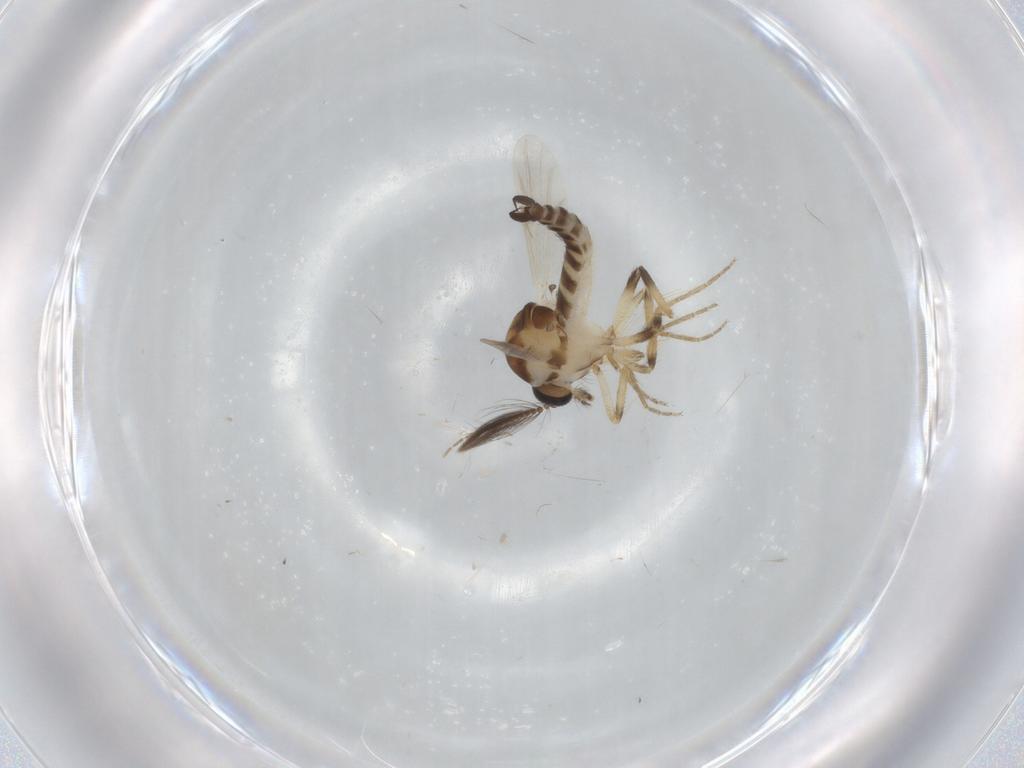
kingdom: Animalia
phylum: Arthropoda
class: Insecta
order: Diptera
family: Ceratopogonidae
